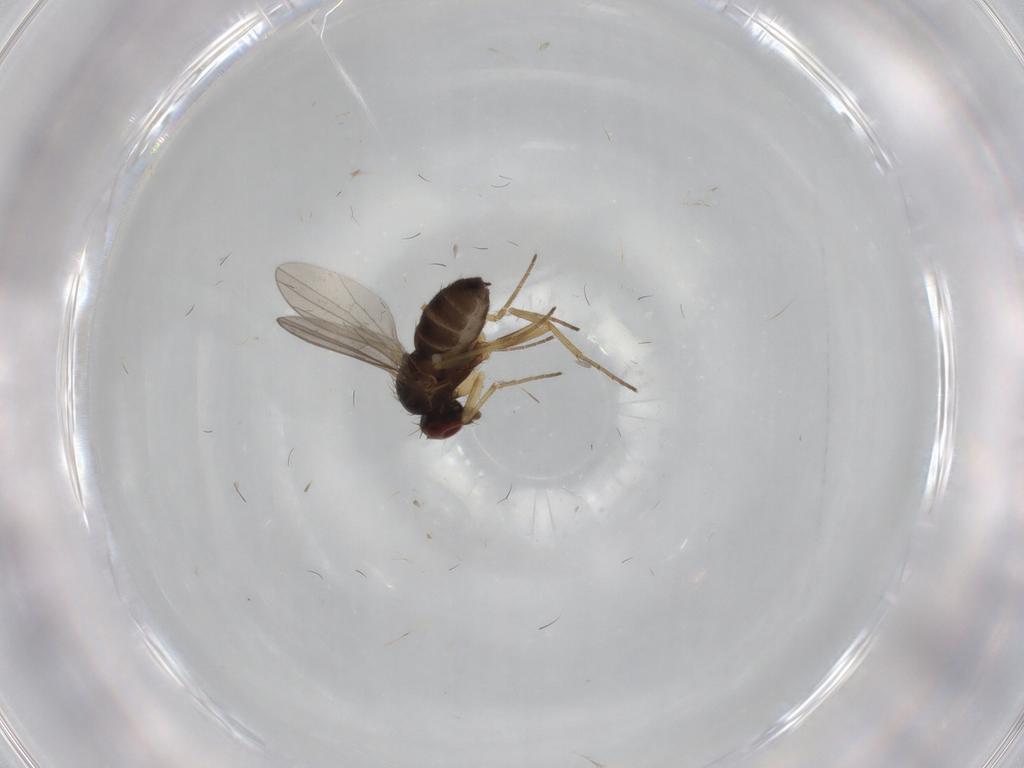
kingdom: Animalia
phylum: Arthropoda
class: Insecta
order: Diptera
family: Dolichopodidae
